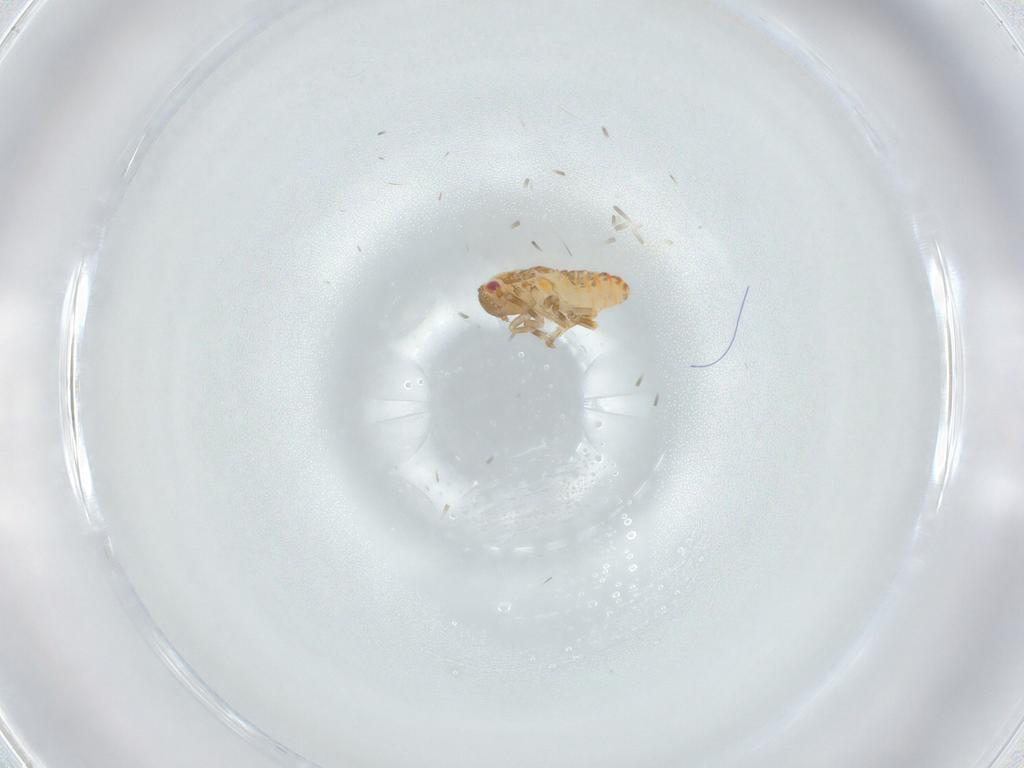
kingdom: Animalia
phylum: Arthropoda
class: Insecta
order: Hemiptera
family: Flatidae
